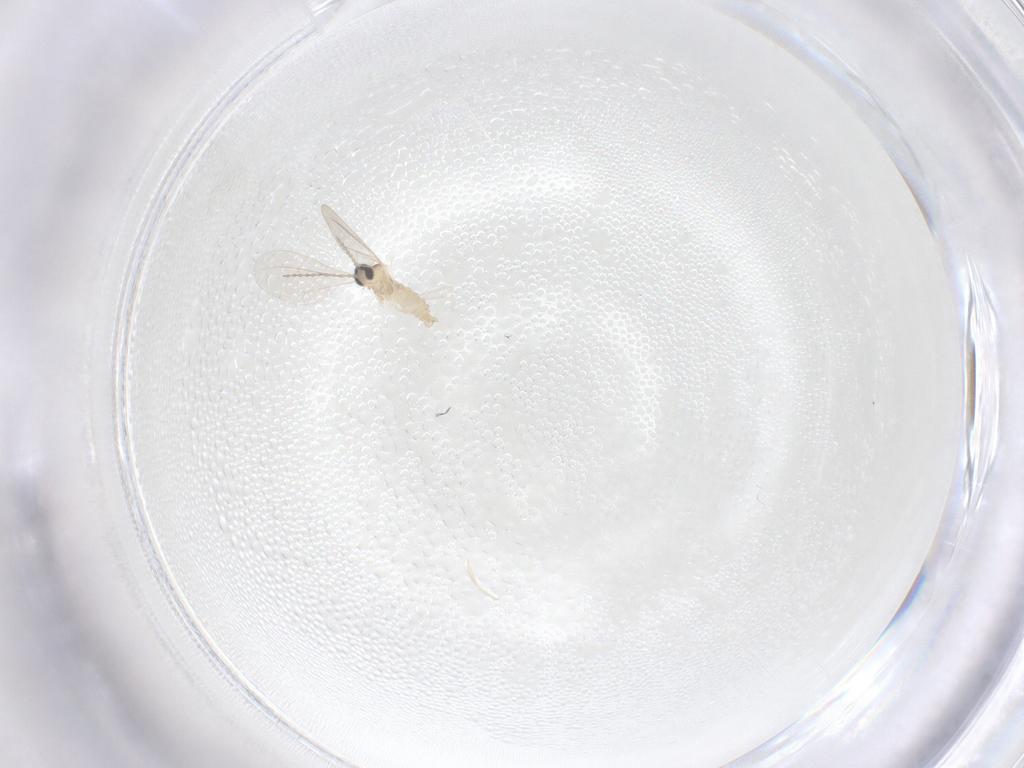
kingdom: Animalia
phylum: Arthropoda
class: Insecta
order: Diptera
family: Cecidomyiidae
